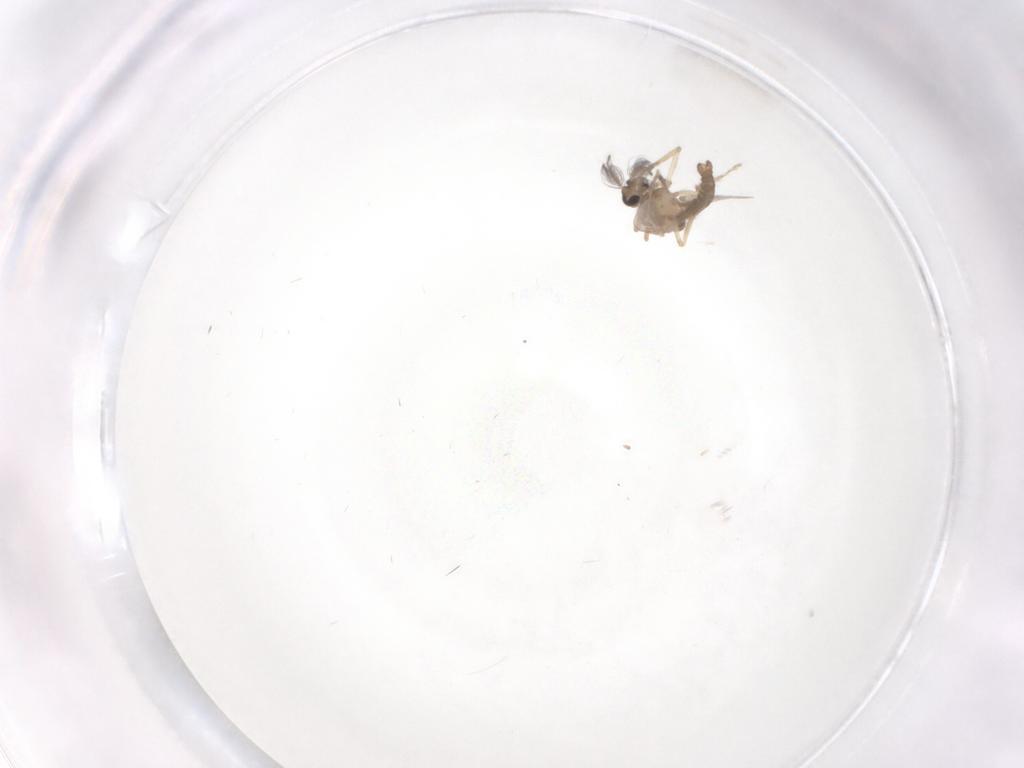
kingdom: Animalia
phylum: Arthropoda
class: Insecta
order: Diptera
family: Ceratopogonidae
